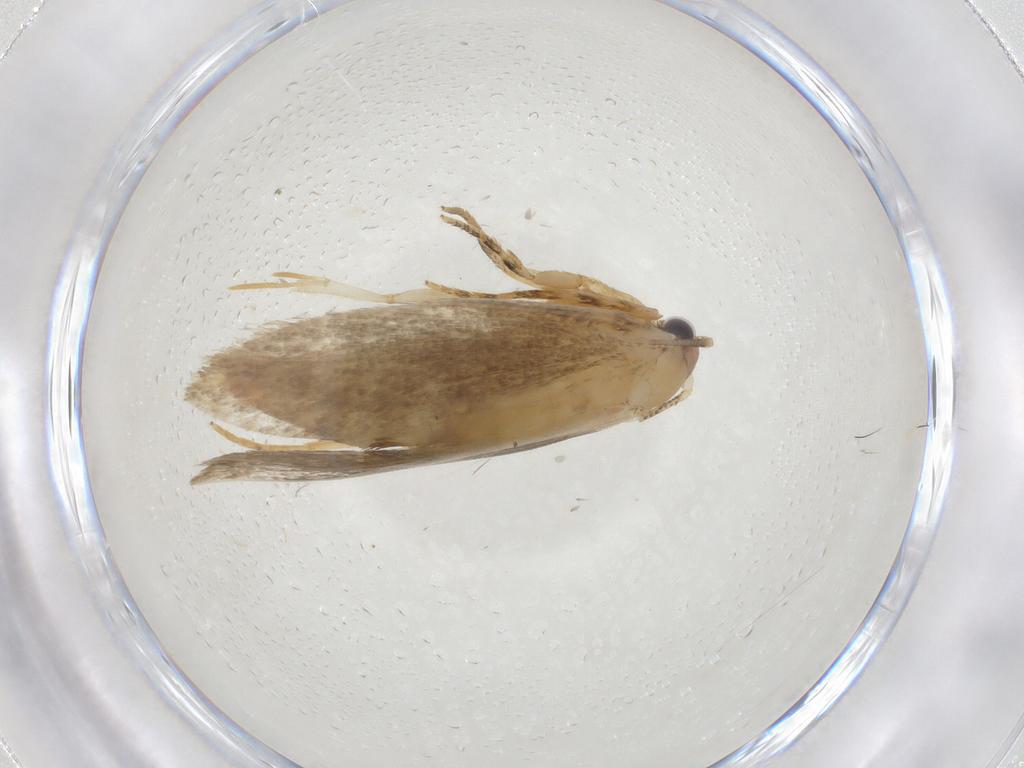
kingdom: Animalia
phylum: Arthropoda
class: Insecta
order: Lepidoptera
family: Tineidae
